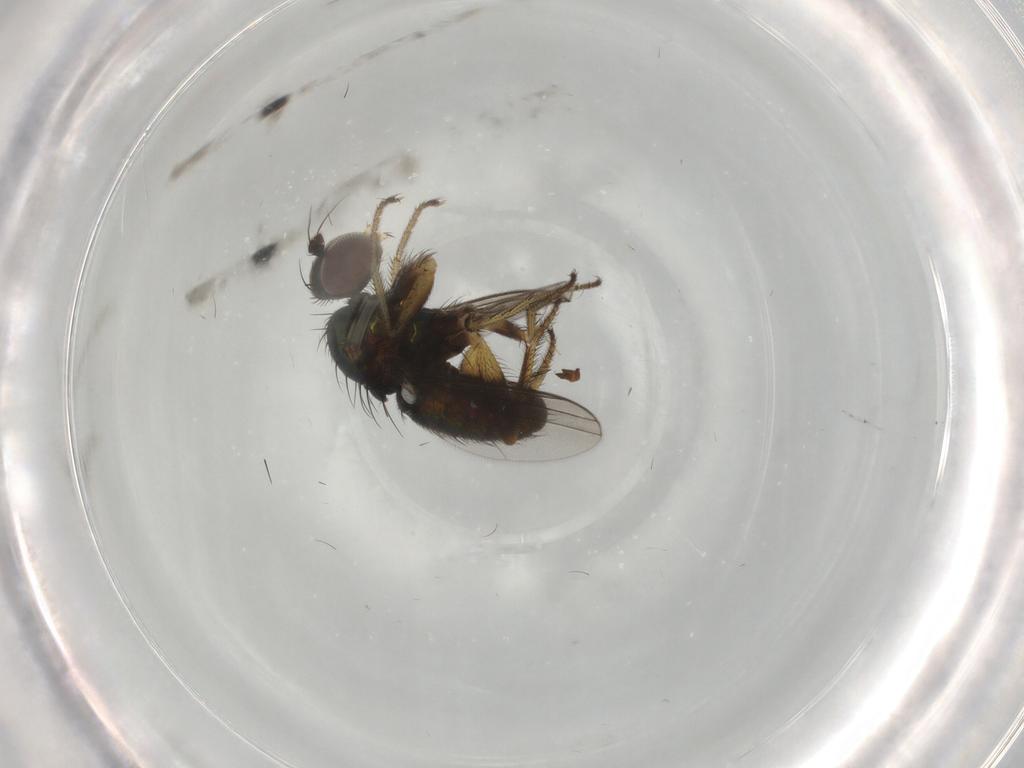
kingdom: Animalia
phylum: Arthropoda
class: Insecta
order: Diptera
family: Dolichopodidae
